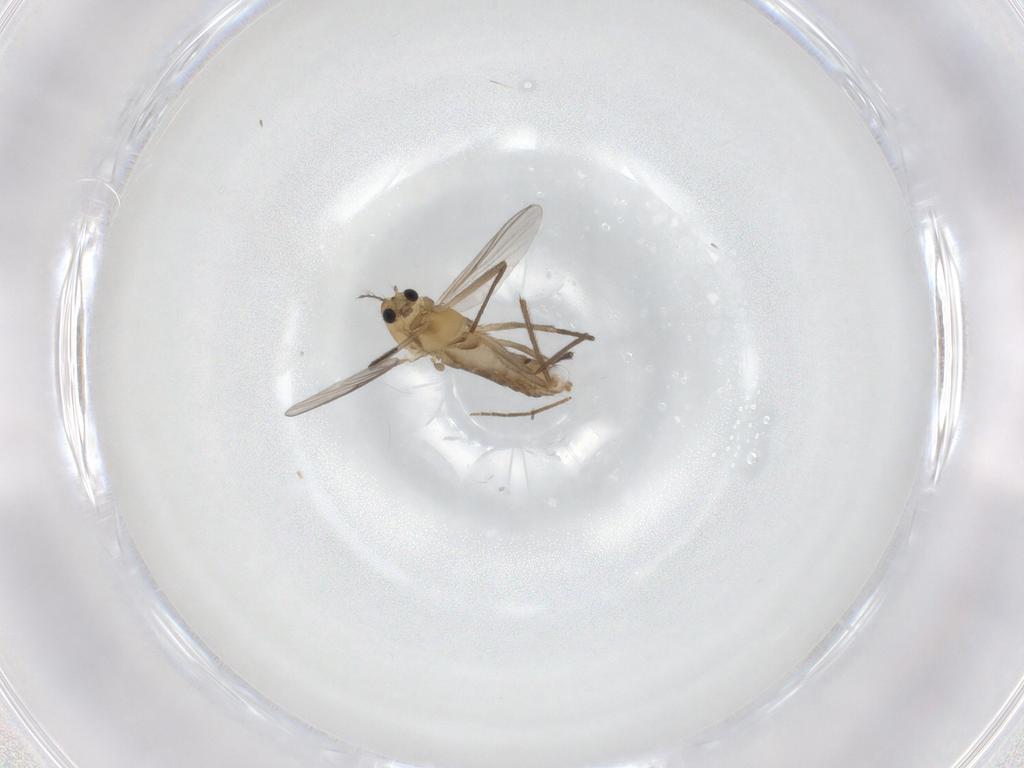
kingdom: Animalia
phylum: Arthropoda
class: Insecta
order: Diptera
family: Chironomidae
